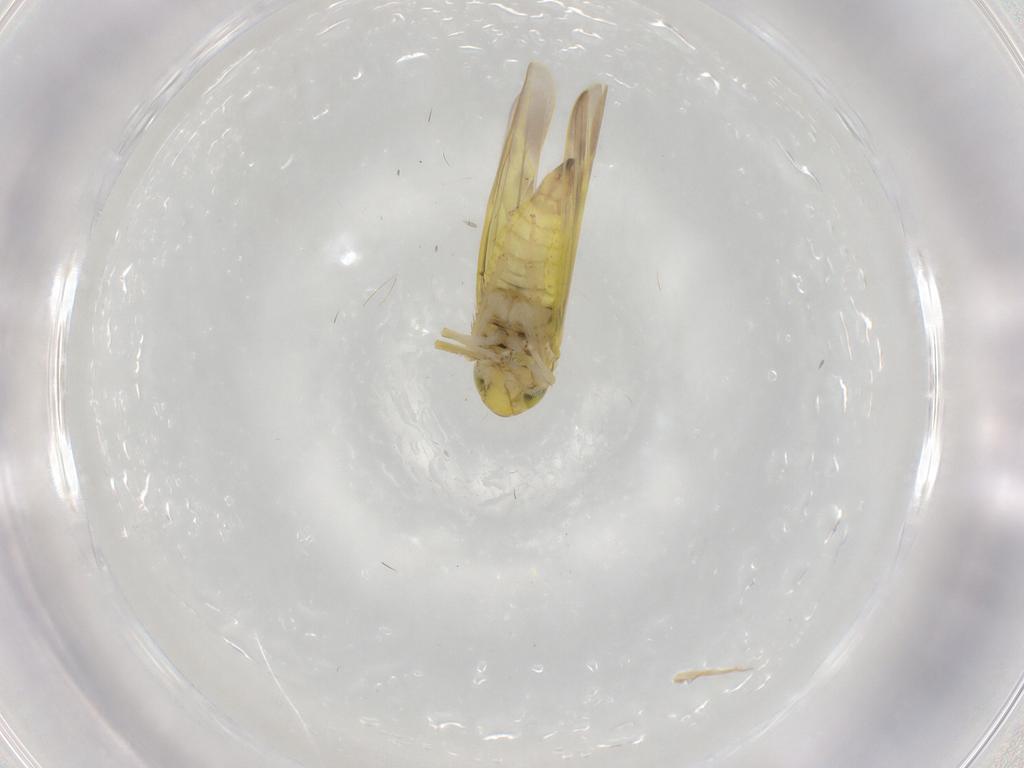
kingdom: Animalia
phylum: Arthropoda
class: Insecta
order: Hemiptera
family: Cicadellidae
